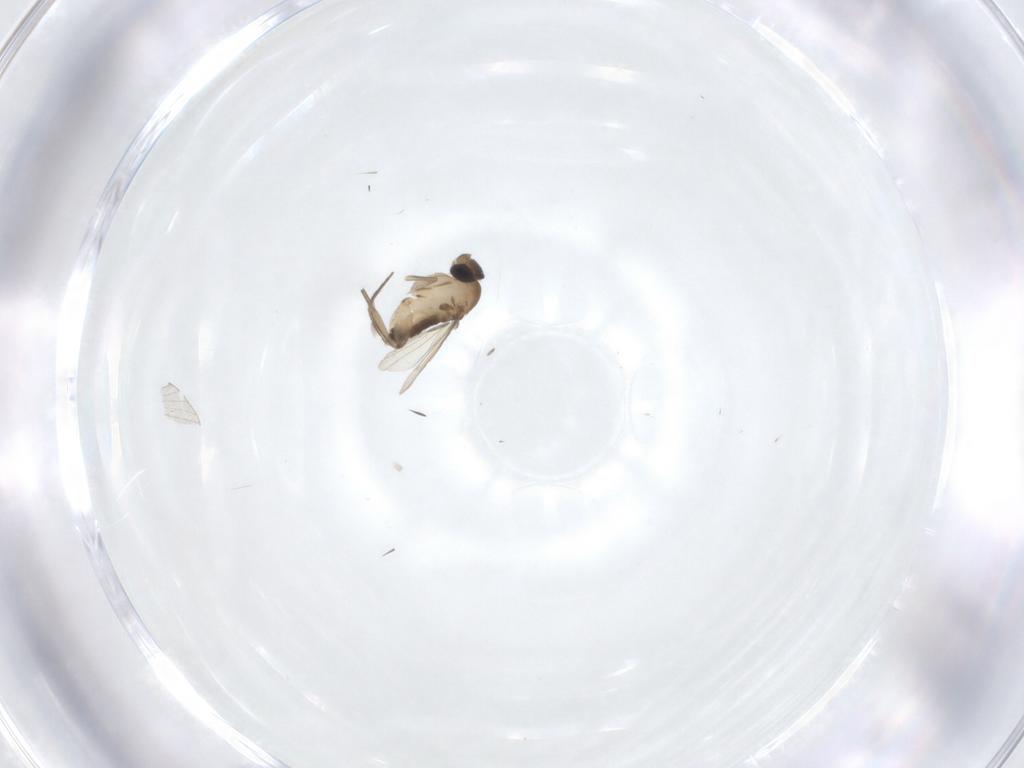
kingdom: Animalia
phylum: Arthropoda
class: Insecta
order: Diptera
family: Phoridae
